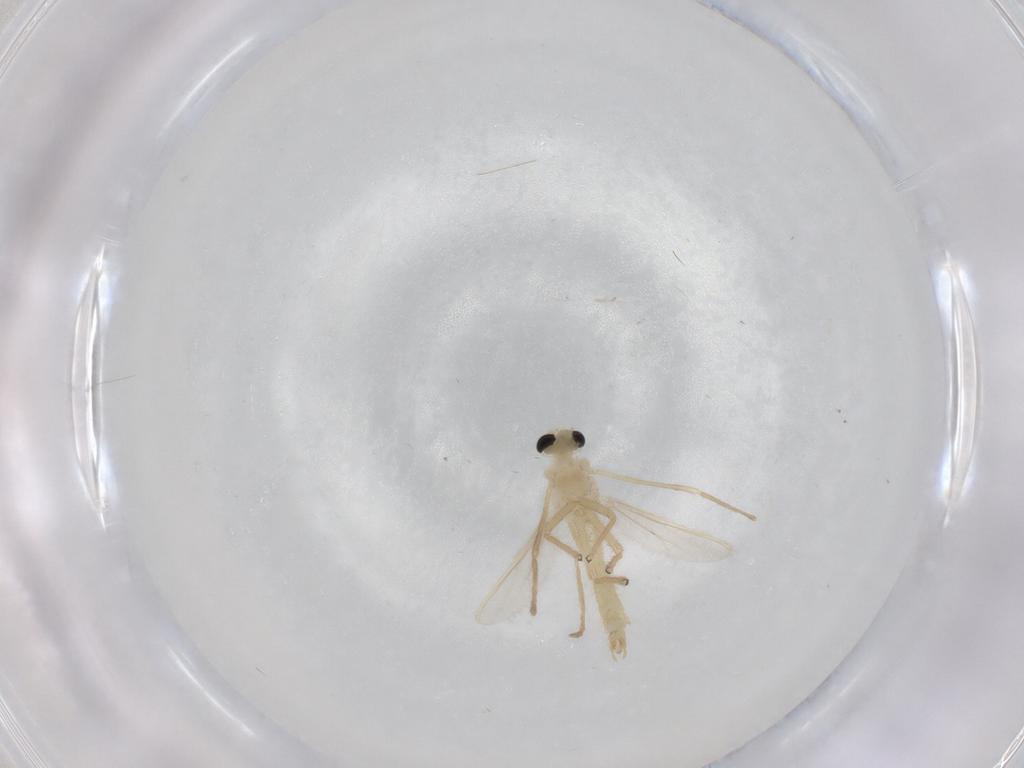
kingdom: Animalia
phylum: Arthropoda
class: Insecta
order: Diptera
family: Chironomidae
